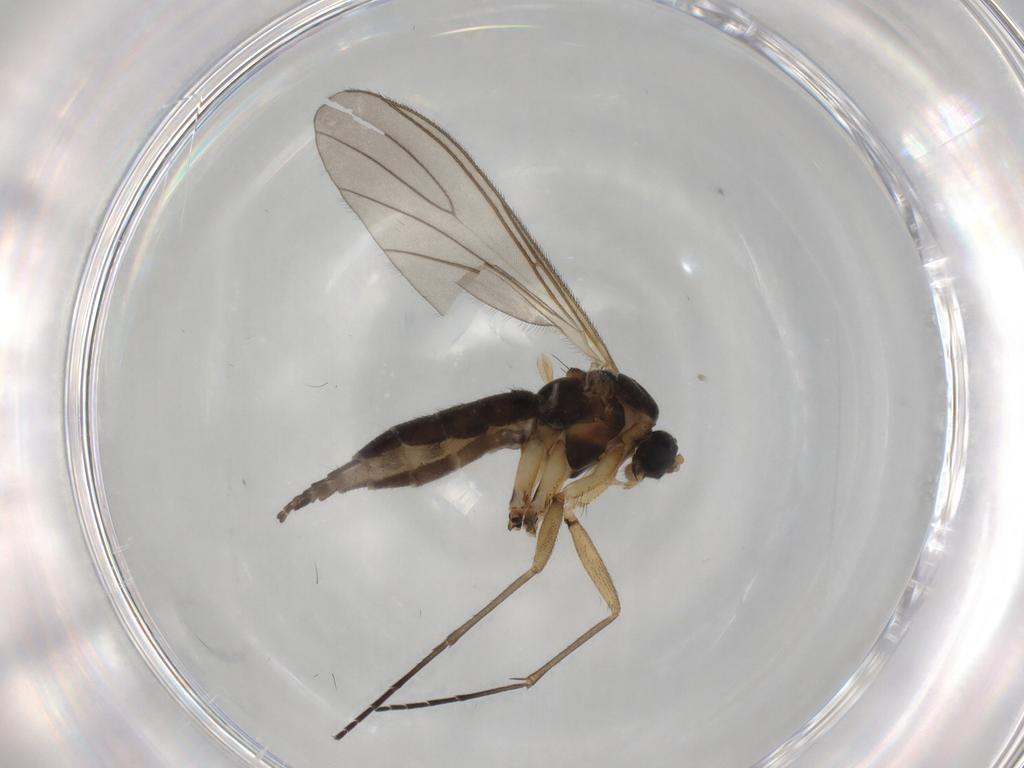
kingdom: Animalia
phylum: Arthropoda
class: Insecta
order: Diptera
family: Sciaridae
